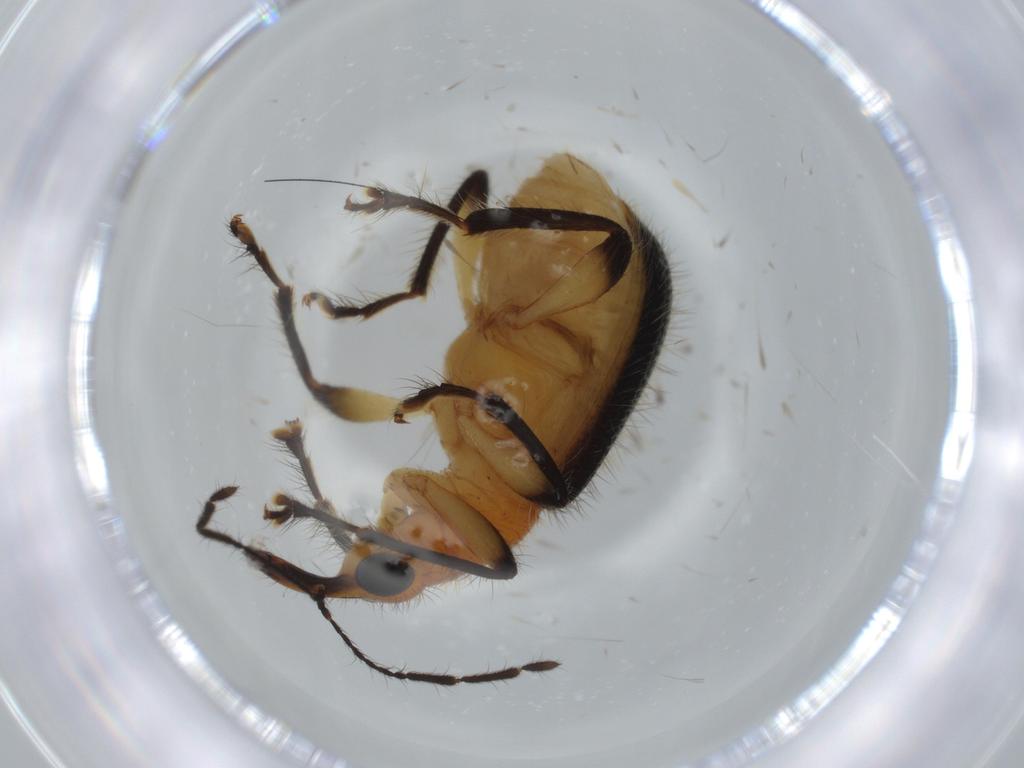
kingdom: Animalia
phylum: Arthropoda
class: Insecta
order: Coleoptera
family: Attelabidae
